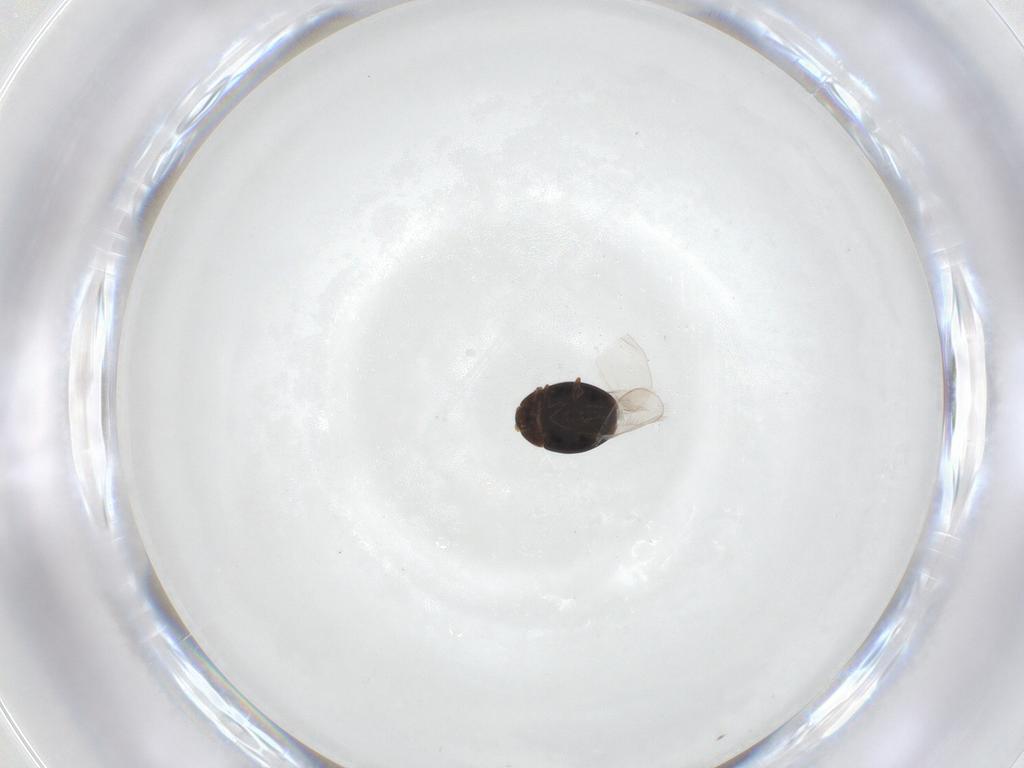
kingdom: Animalia
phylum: Arthropoda
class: Insecta
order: Coleoptera
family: Corylophidae
